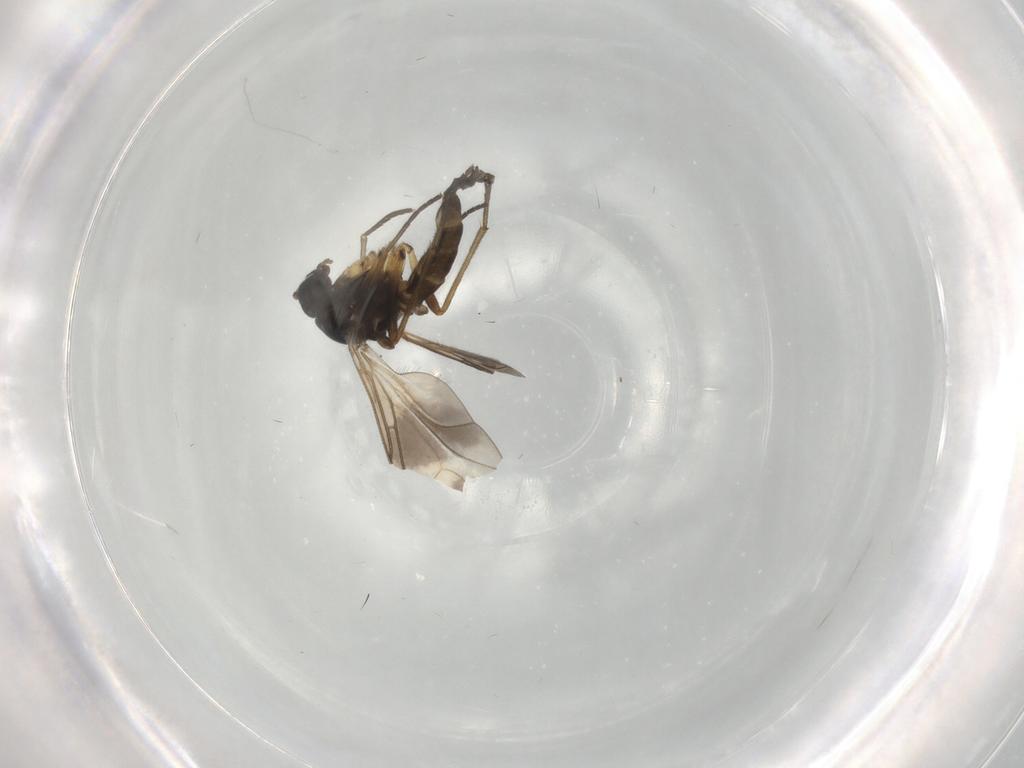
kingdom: Animalia
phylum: Arthropoda
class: Insecta
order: Diptera
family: Sciaridae
